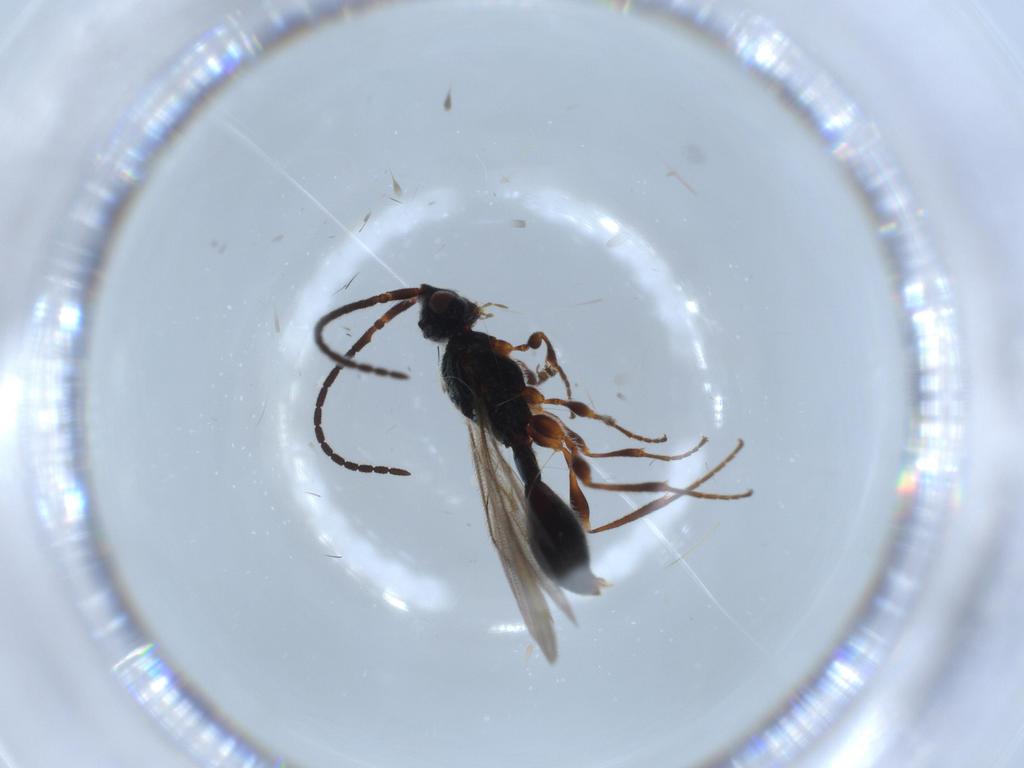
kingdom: Animalia
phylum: Arthropoda
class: Insecta
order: Hymenoptera
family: Diapriidae
